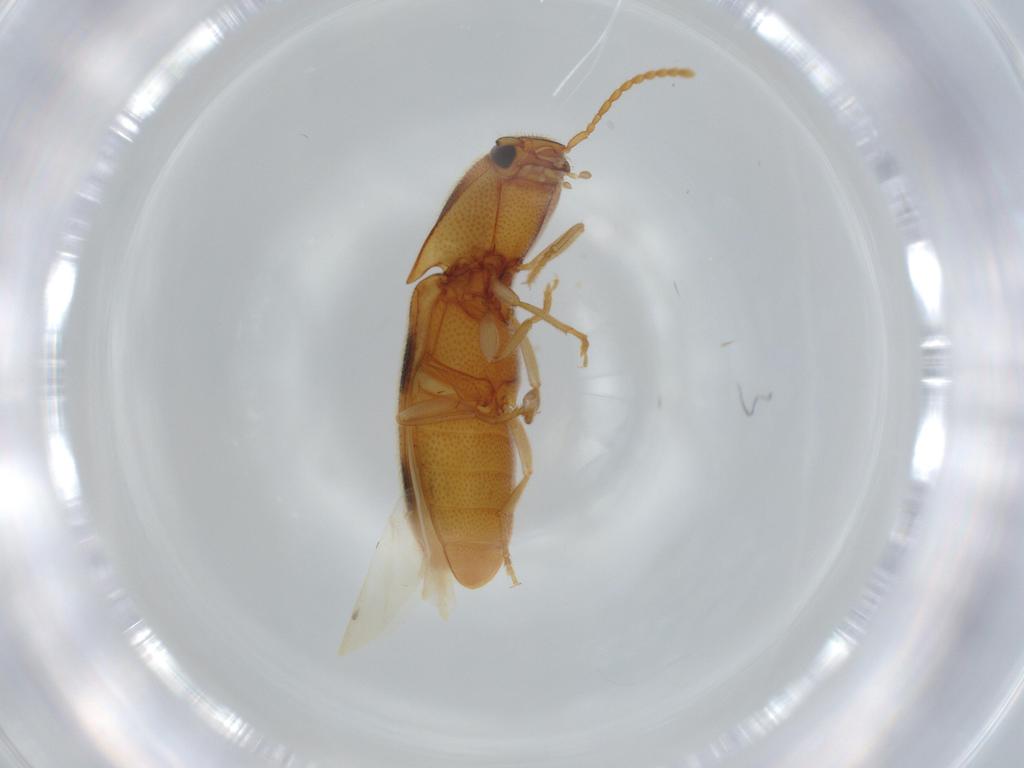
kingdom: Animalia
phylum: Arthropoda
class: Insecta
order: Coleoptera
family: Elateridae
